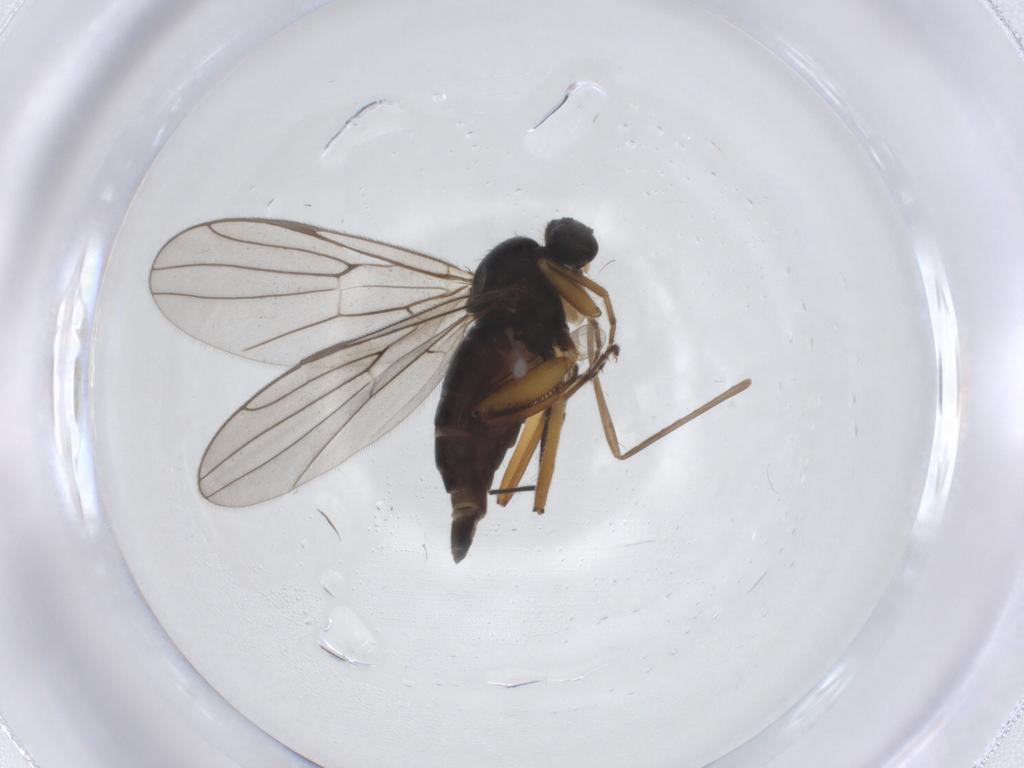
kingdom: Animalia
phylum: Arthropoda
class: Insecta
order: Diptera
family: Hybotidae
